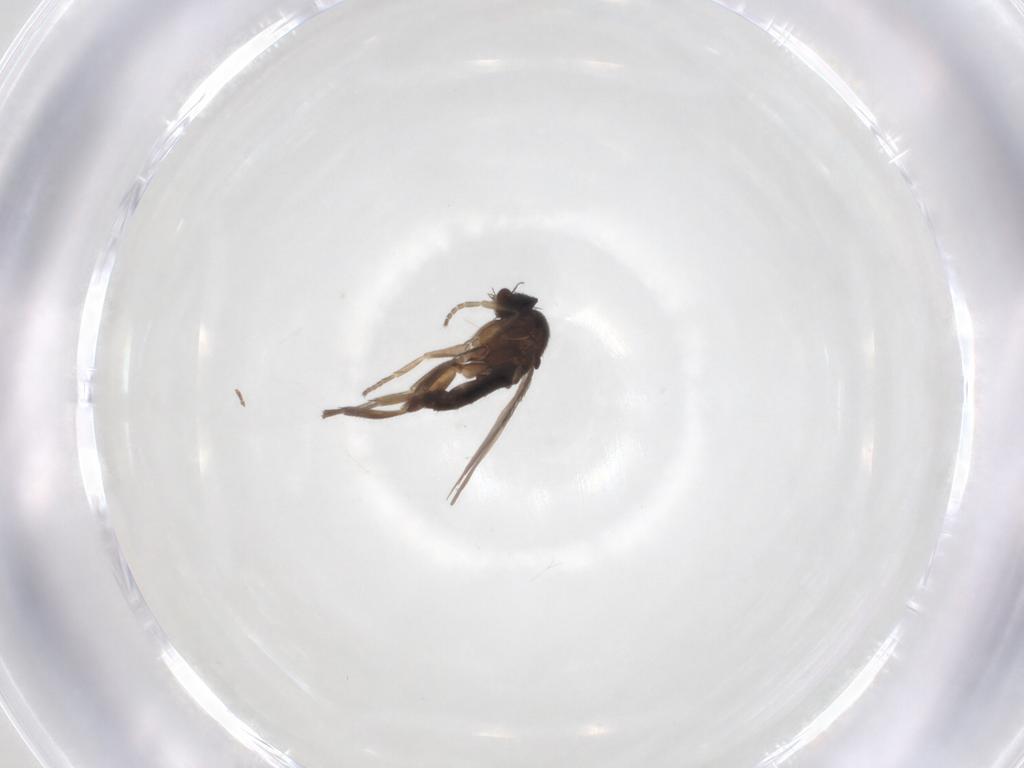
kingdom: Animalia
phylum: Arthropoda
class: Insecta
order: Diptera
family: Phoridae
